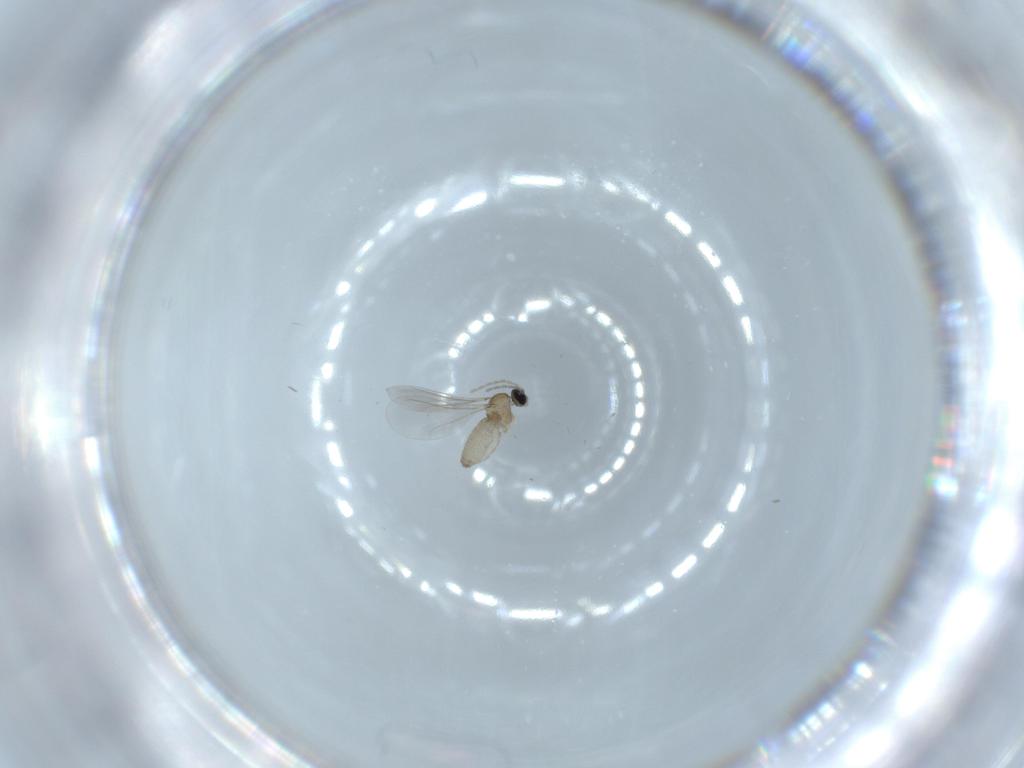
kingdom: Animalia
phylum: Arthropoda
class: Insecta
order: Diptera
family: Cecidomyiidae
